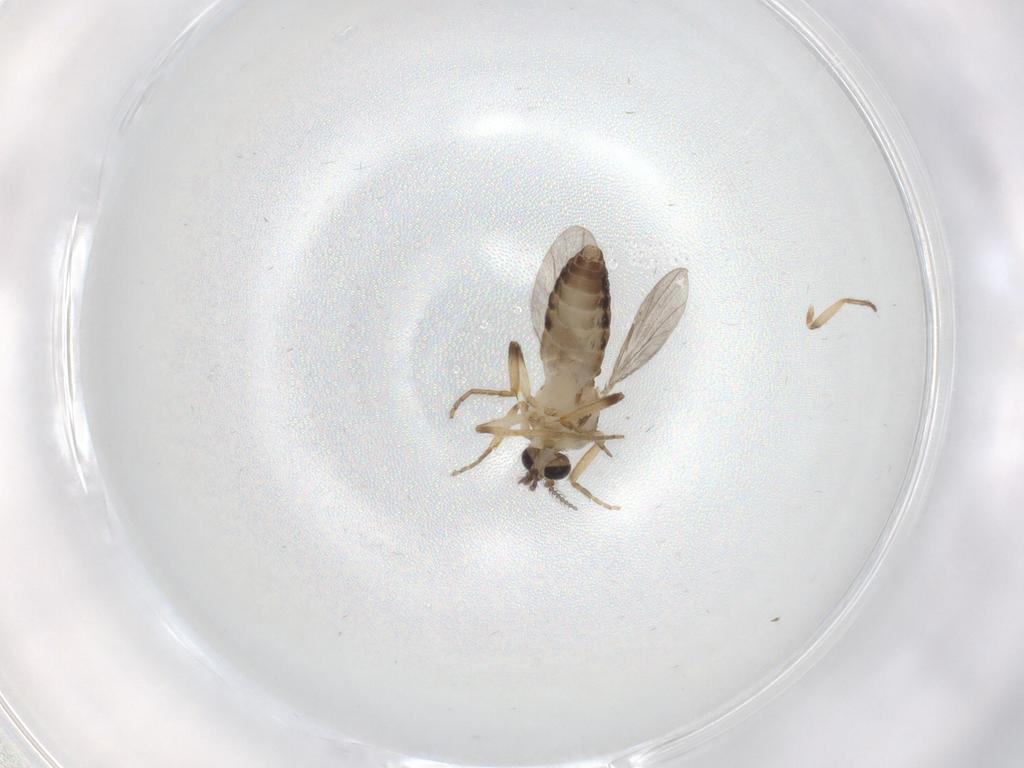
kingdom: Animalia
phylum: Arthropoda
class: Insecta
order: Diptera
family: Ceratopogonidae
